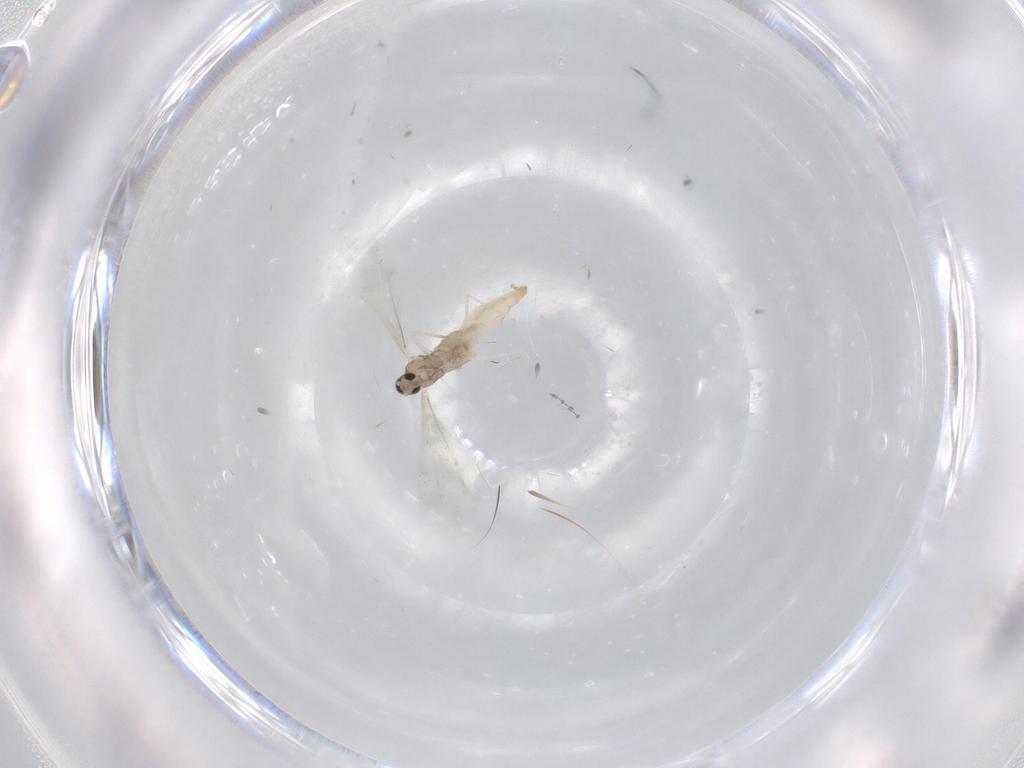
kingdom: Animalia
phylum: Arthropoda
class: Insecta
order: Diptera
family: Cecidomyiidae
